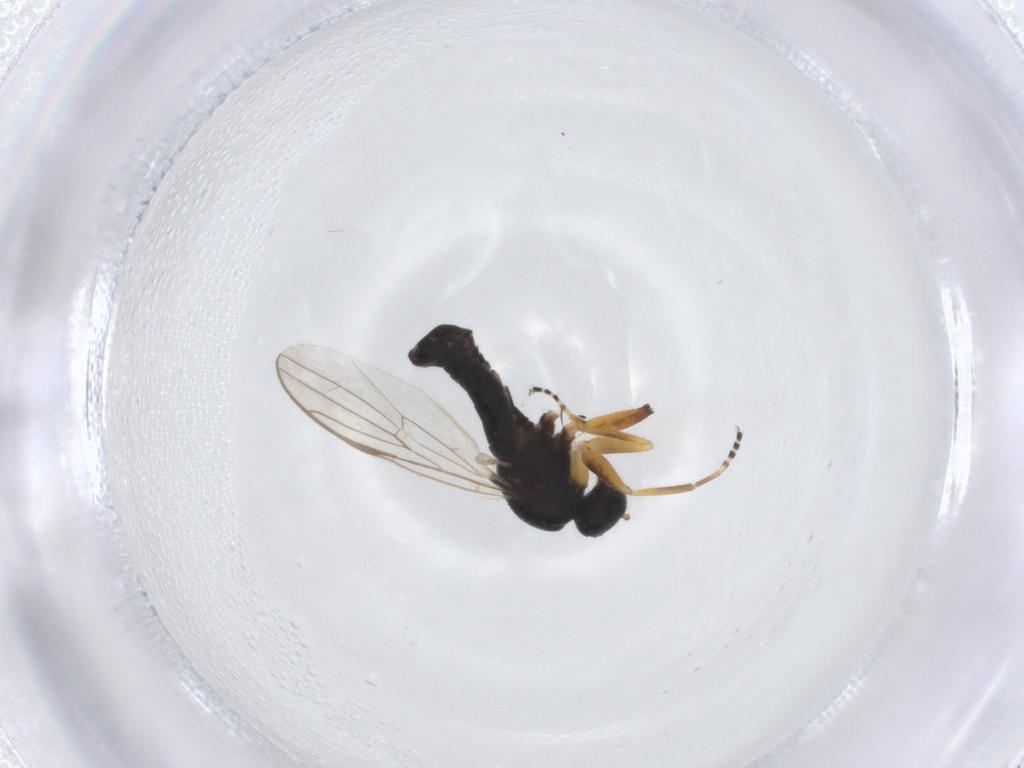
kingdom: Animalia
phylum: Arthropoda
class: Insecta
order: Diptera
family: Hybotidae
